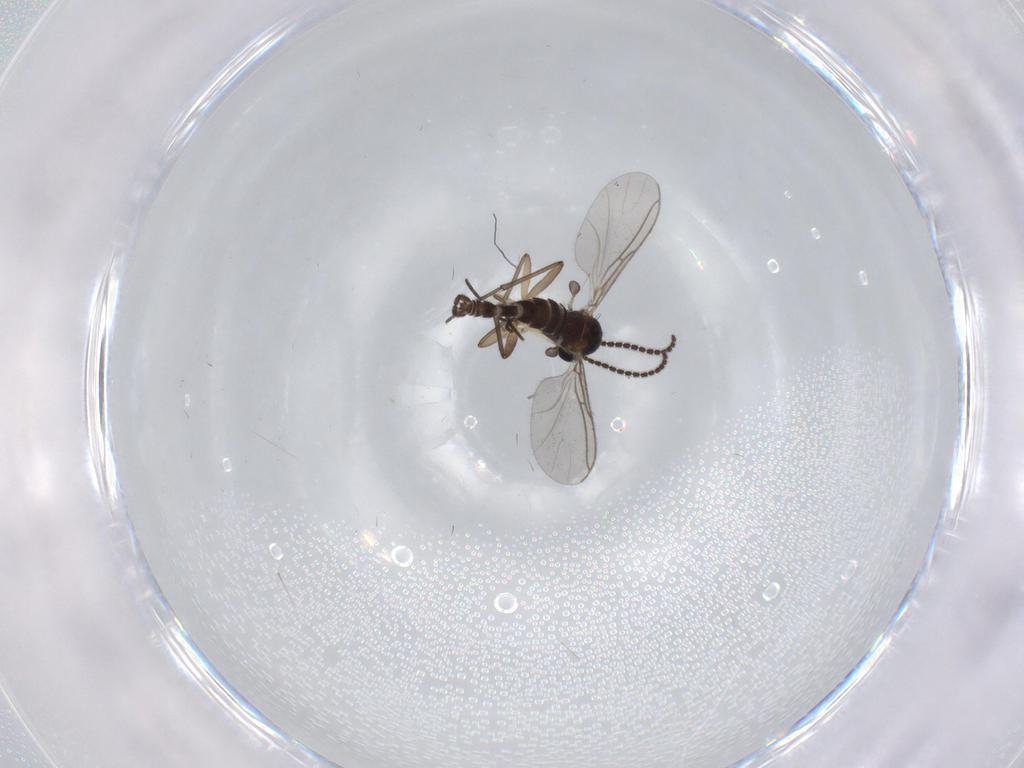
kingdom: Animalia
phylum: Arthropoda
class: Insecta
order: Diptera
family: Sciaridae
